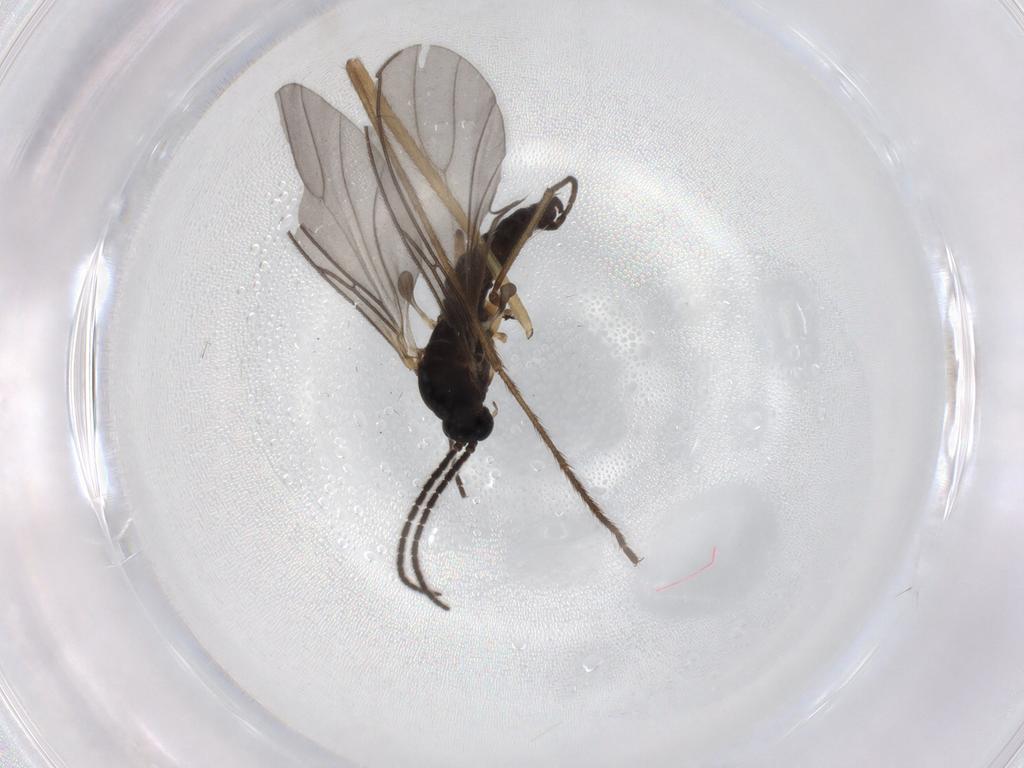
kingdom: Animalia
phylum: Arthropoda
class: Insecta
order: Diptera
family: Sciaridae
